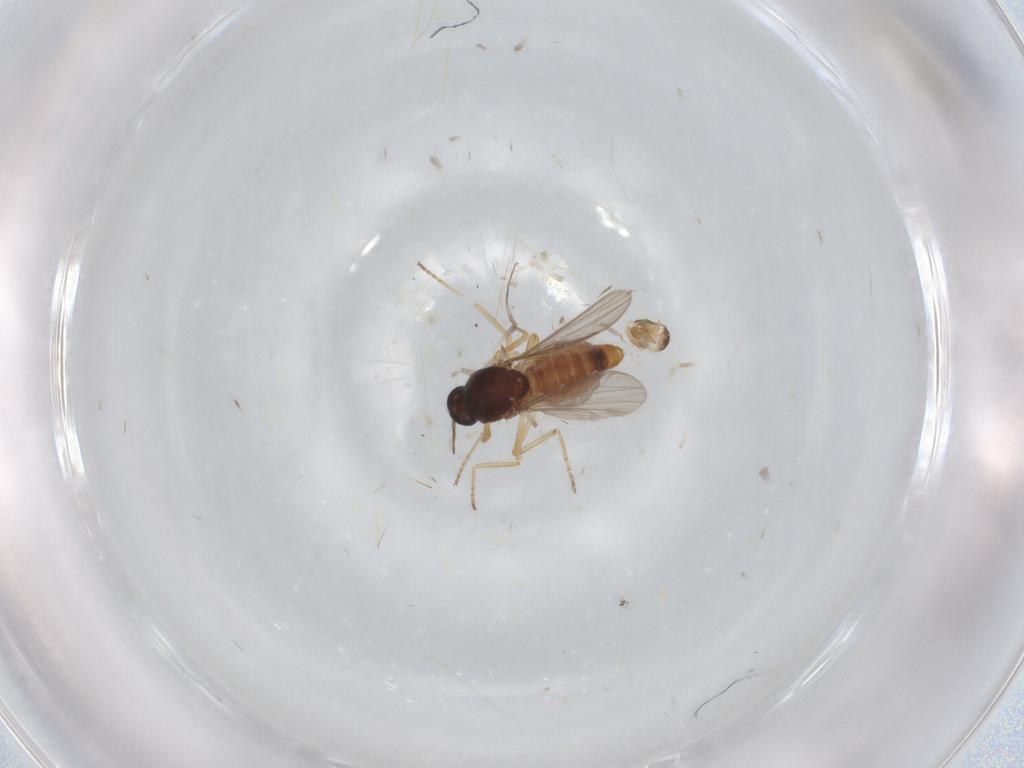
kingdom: Animalia
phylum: Arthropoda
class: Insecta
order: Diptera
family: Ceratopogonidae
